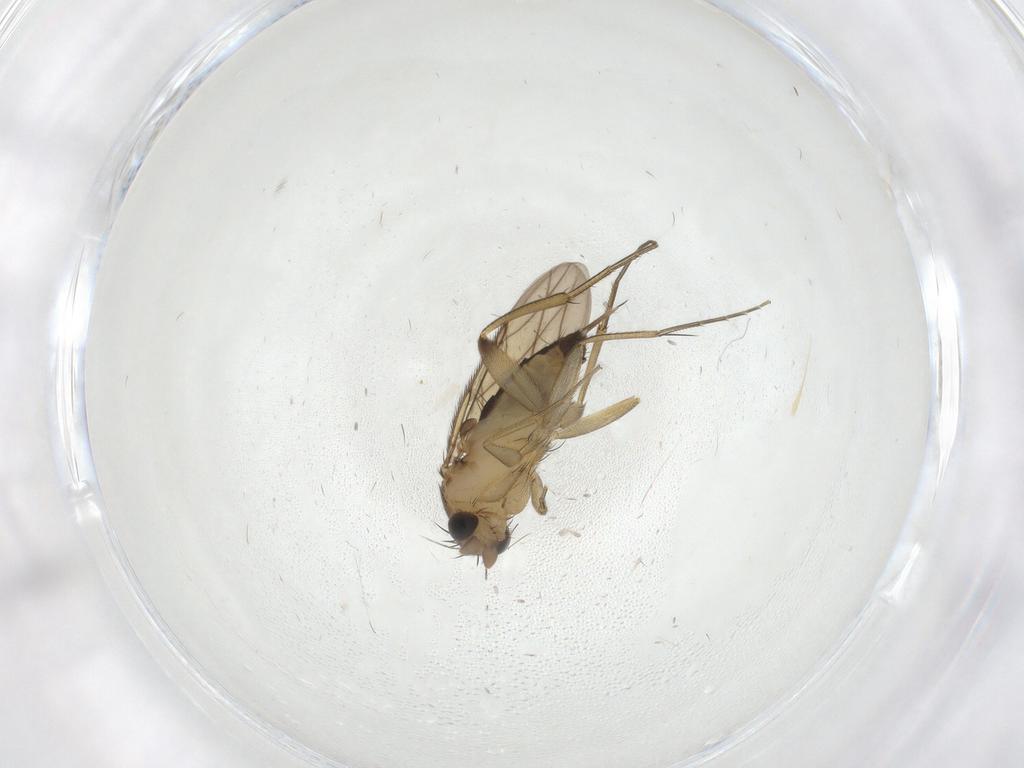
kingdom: Animalia
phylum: Arthropoda
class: Insecta
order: Diptera
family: Phoridae
